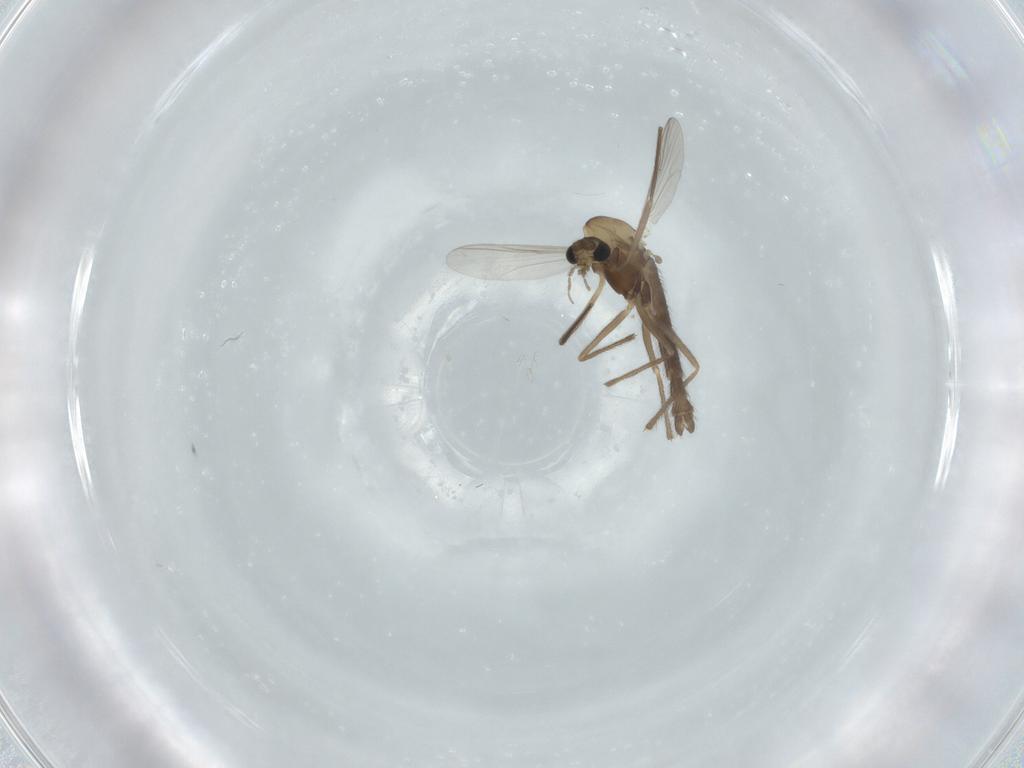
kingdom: Animalia
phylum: Arthropoda
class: Insecta
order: Diptera
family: Chironomidae
